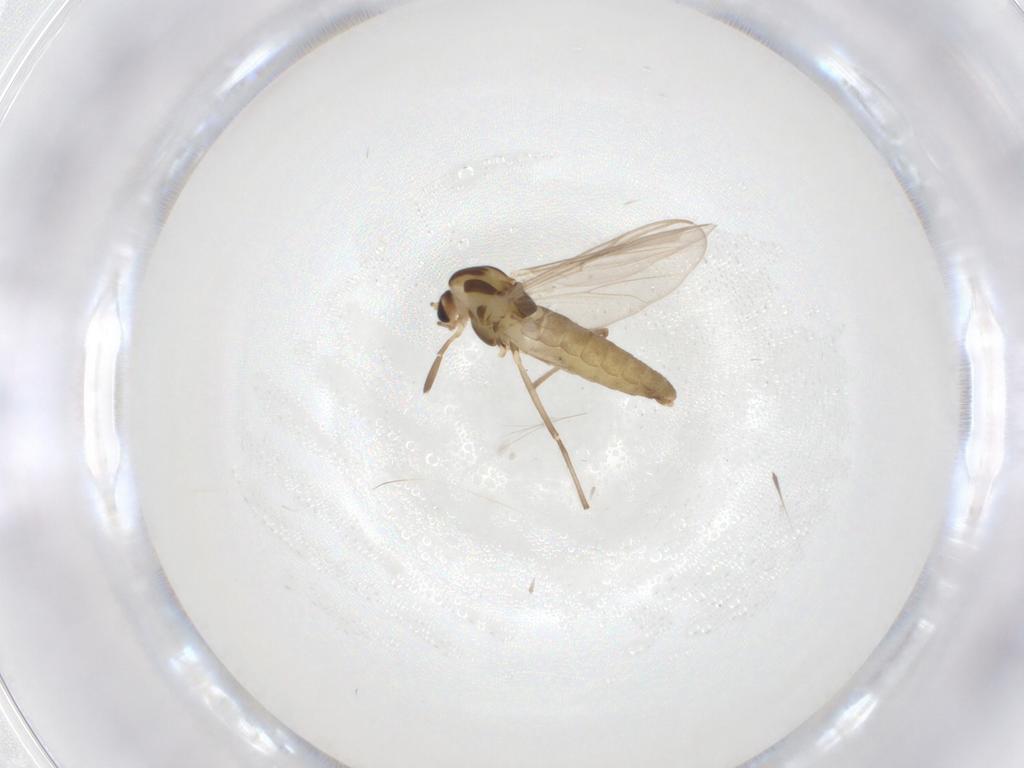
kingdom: Animalia
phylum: Arthropoda
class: Insecta
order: Diptera
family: Chironomidae
